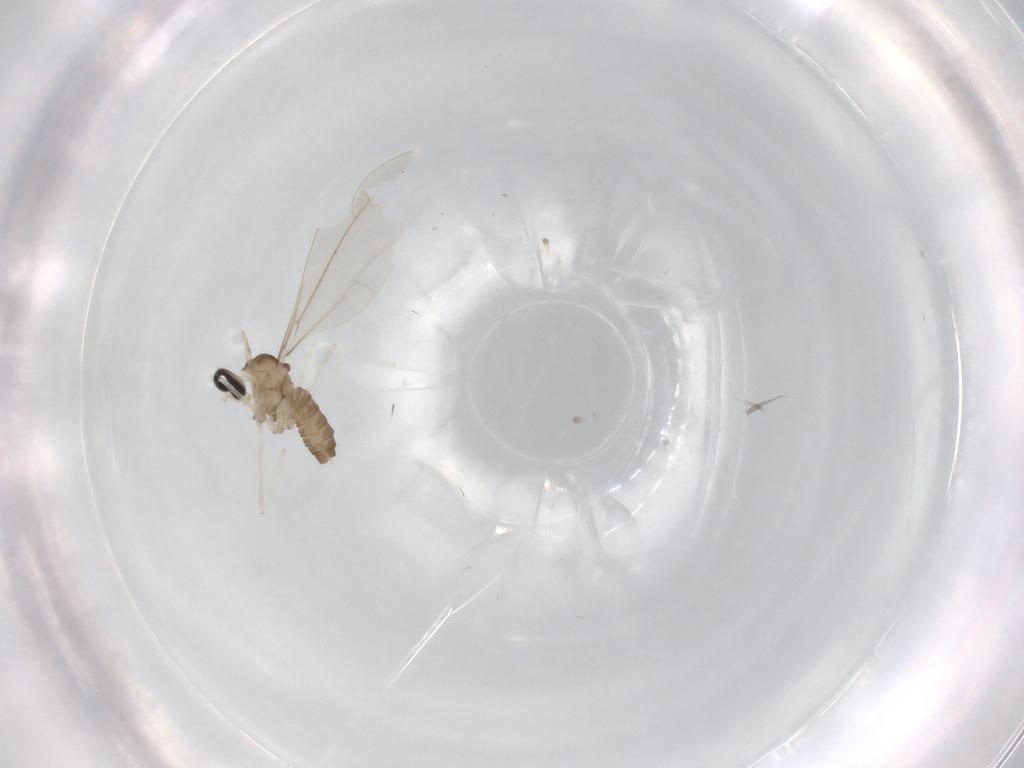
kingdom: Animalia
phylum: Arthropoda
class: Insecta
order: Diptera
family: Cecidomyiidae
